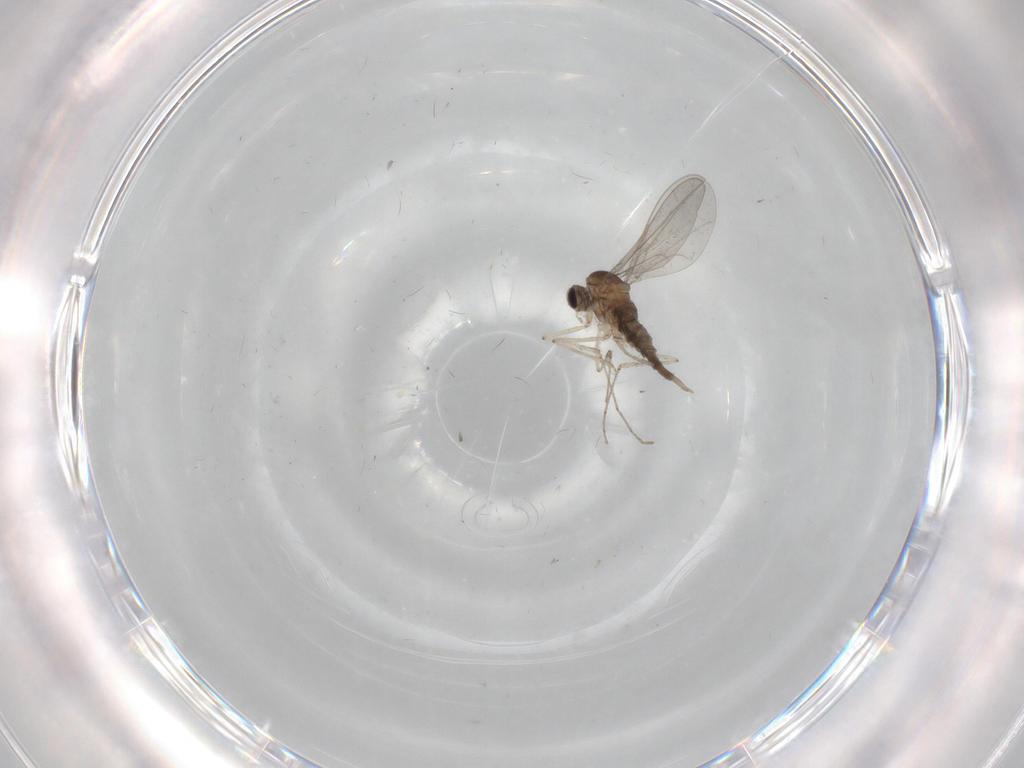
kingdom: Animalia
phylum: Arthropoda
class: Insecta
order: Diptera
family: Cecidomyiidae
